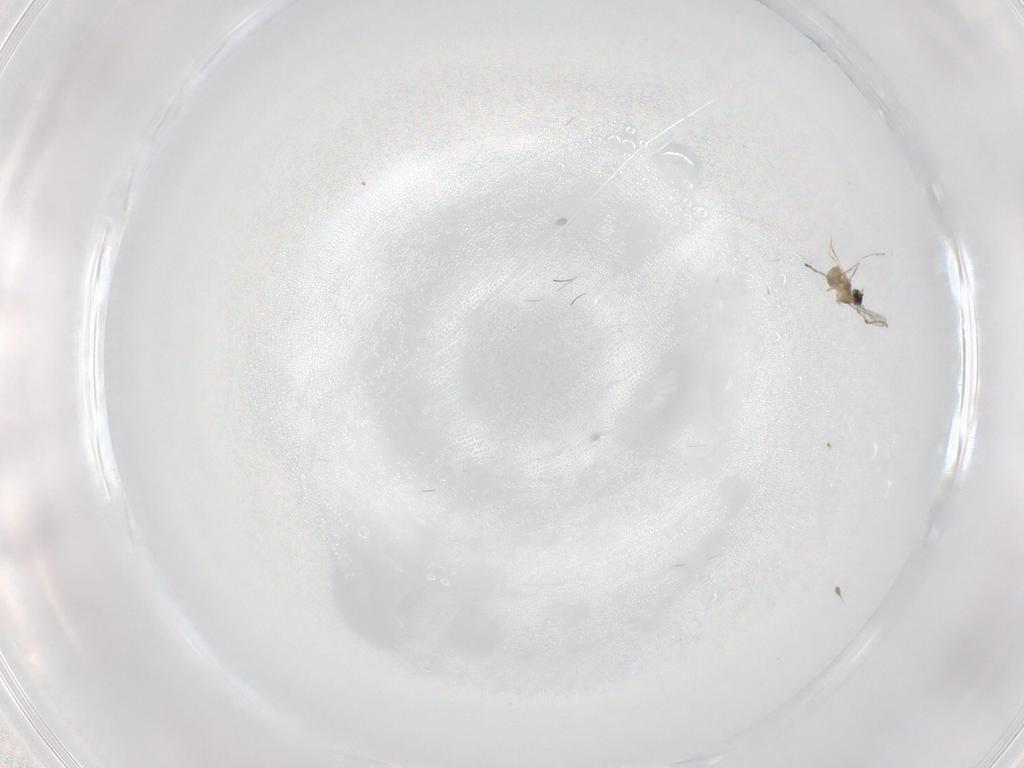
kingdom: Animalia
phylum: Arthropoda
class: Insecta
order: Diptera
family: Cecidomyiidae
